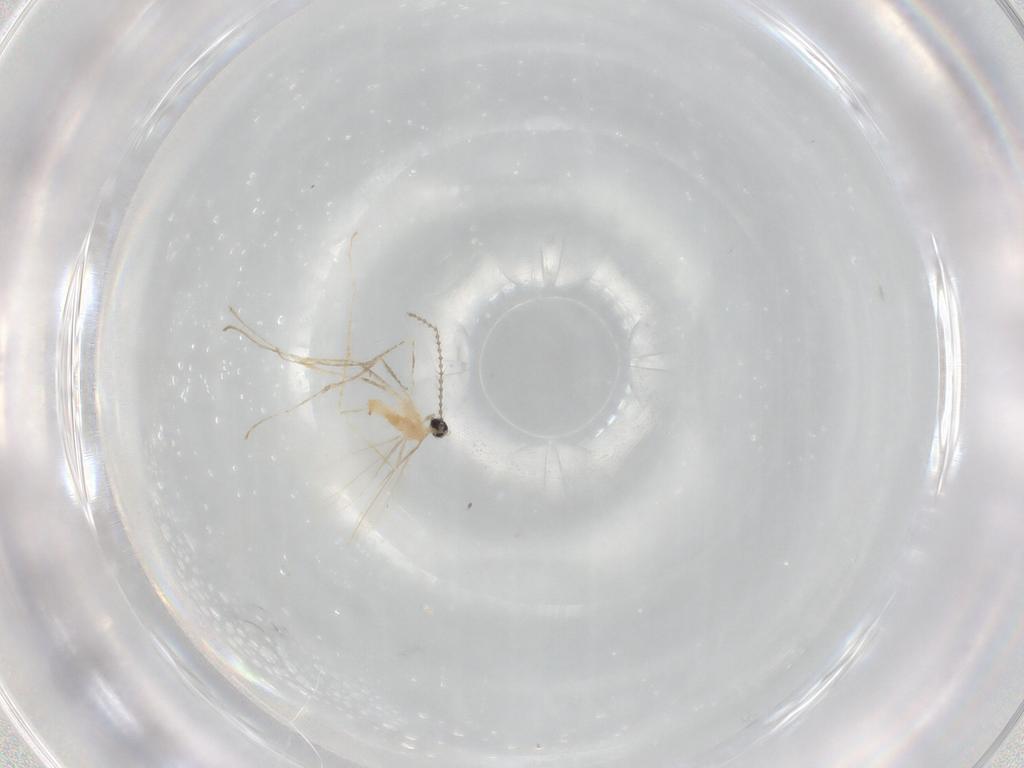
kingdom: Animalia
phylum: Arthropoda
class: Insecta
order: Diptera
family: Cecidomyiidae
